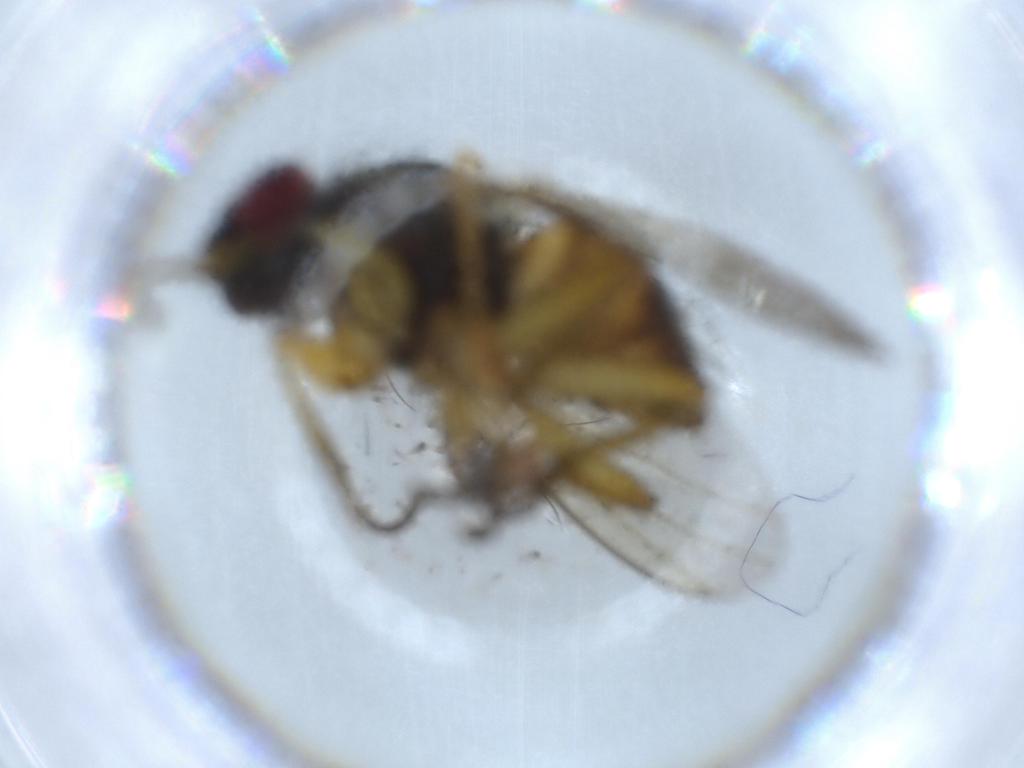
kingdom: Animalia
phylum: Arthropoda
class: Insecta
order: Diptera
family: Muscidae
